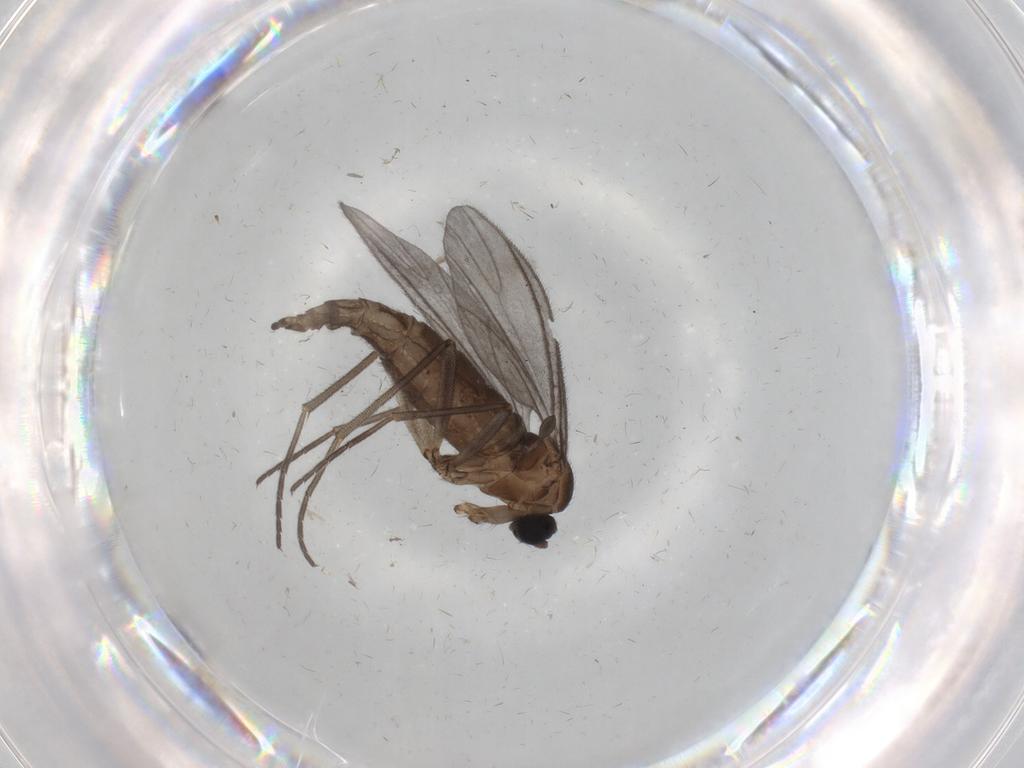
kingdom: Animalia
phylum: Arthropoda
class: Insecta
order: Diptera
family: Sciaridae
